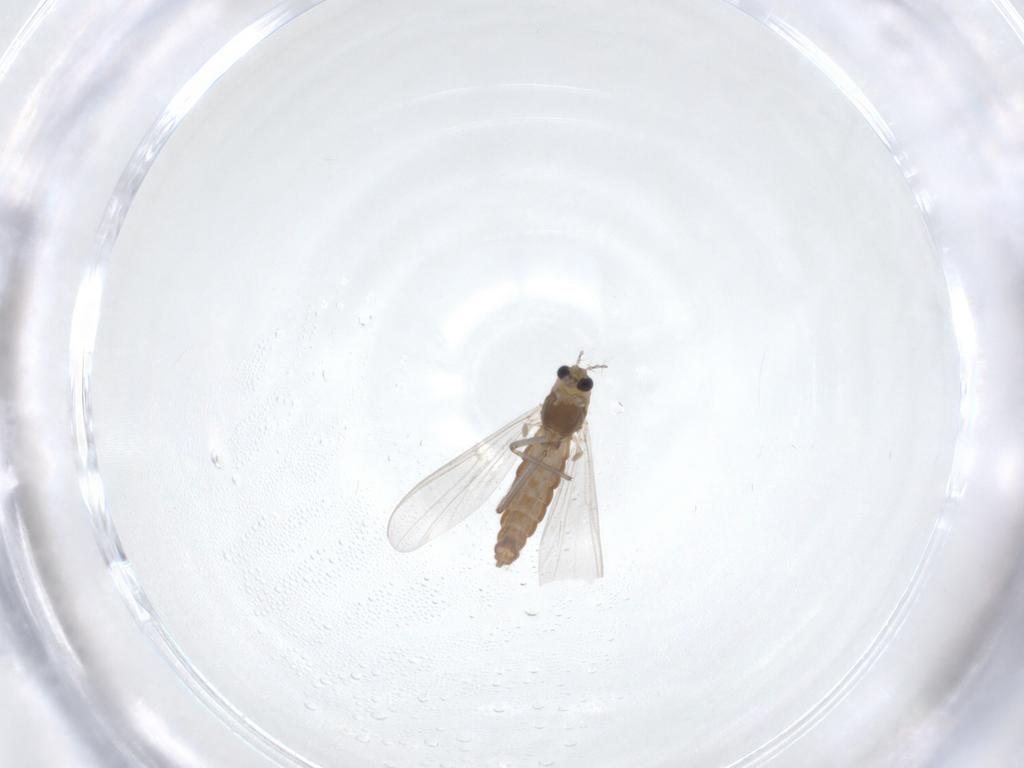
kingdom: Animalia
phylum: Arthropoda
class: Insecta
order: Diptera
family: Chironomidae
